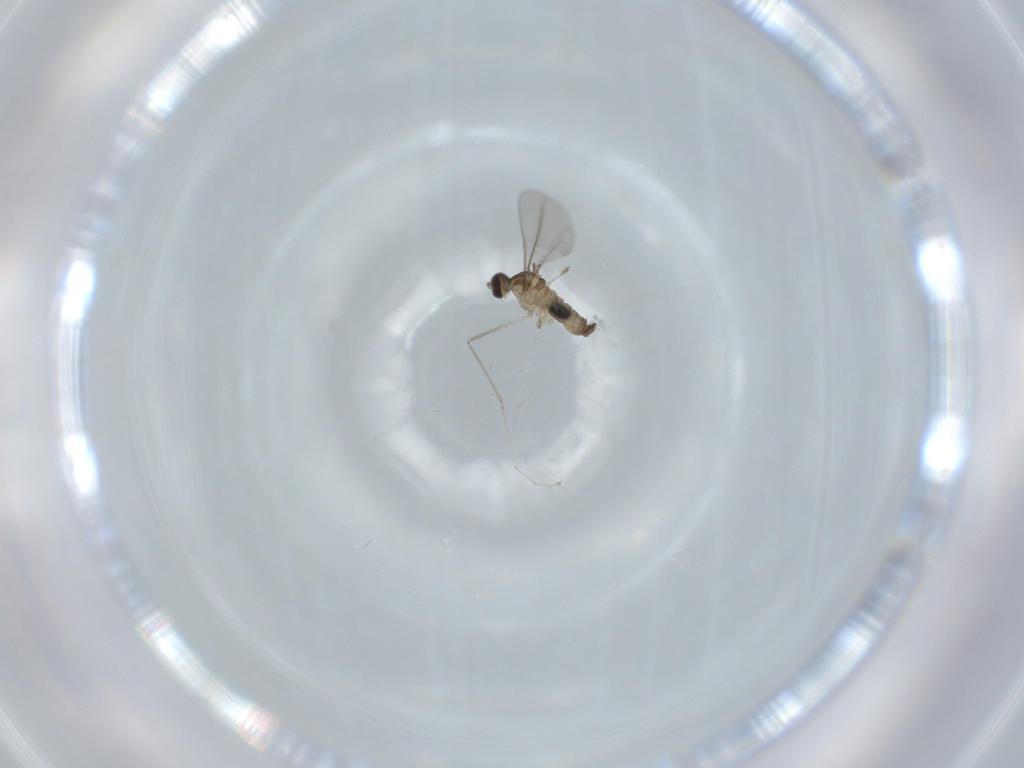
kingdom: Animalia
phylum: Arthropoda
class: Insecta
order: Diptera
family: Cecidomyiidae
